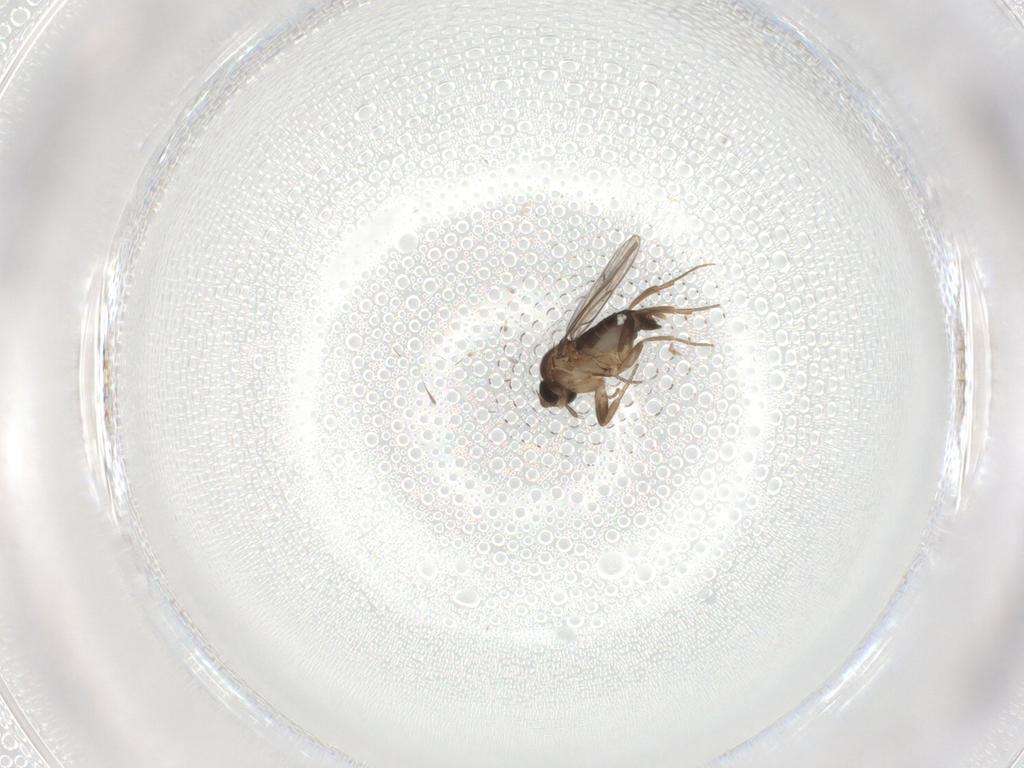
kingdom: Animalia
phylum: Arthropoda
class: Insecta
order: Diptera
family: Phoridae
